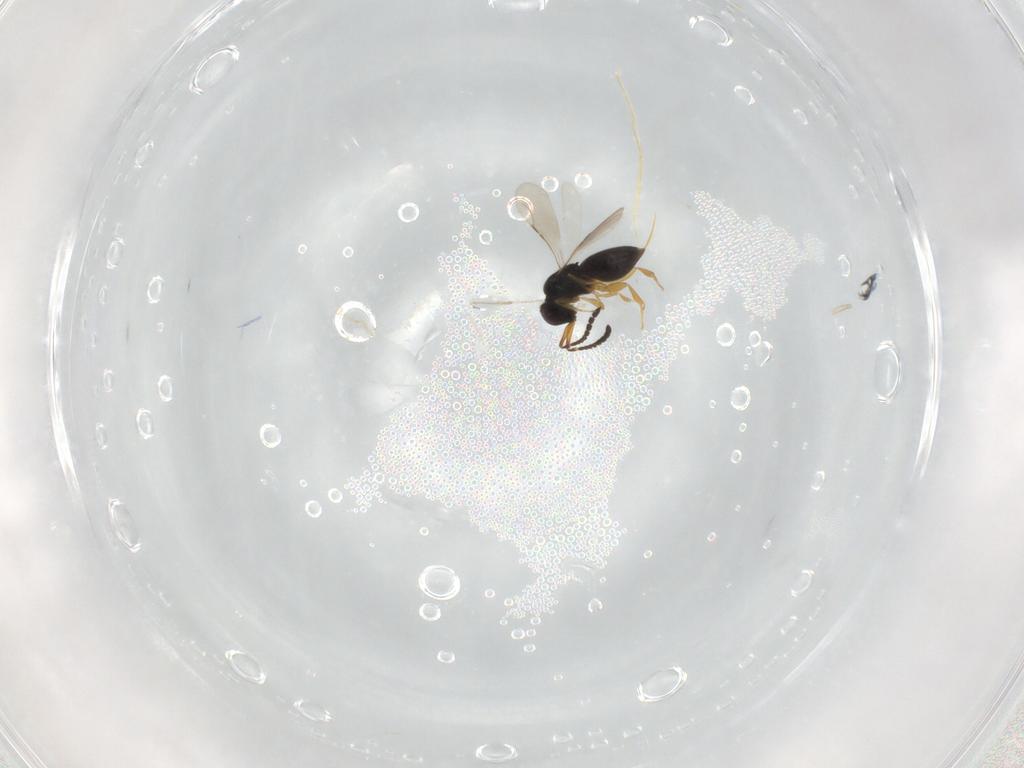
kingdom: Animalia
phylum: Arthropoda
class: Insecta
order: Hymenoptera
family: Ceraphronidae
